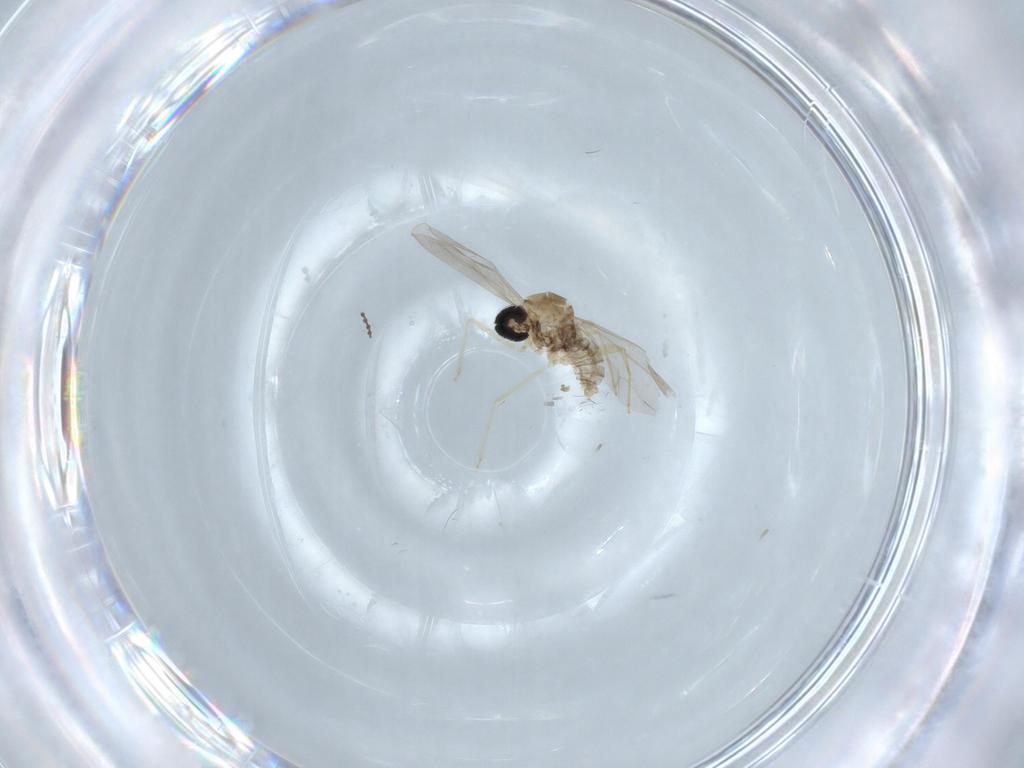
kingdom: Animalia
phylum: Arthropoda
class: Insecta
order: Diptera
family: Cecidomyiidae
